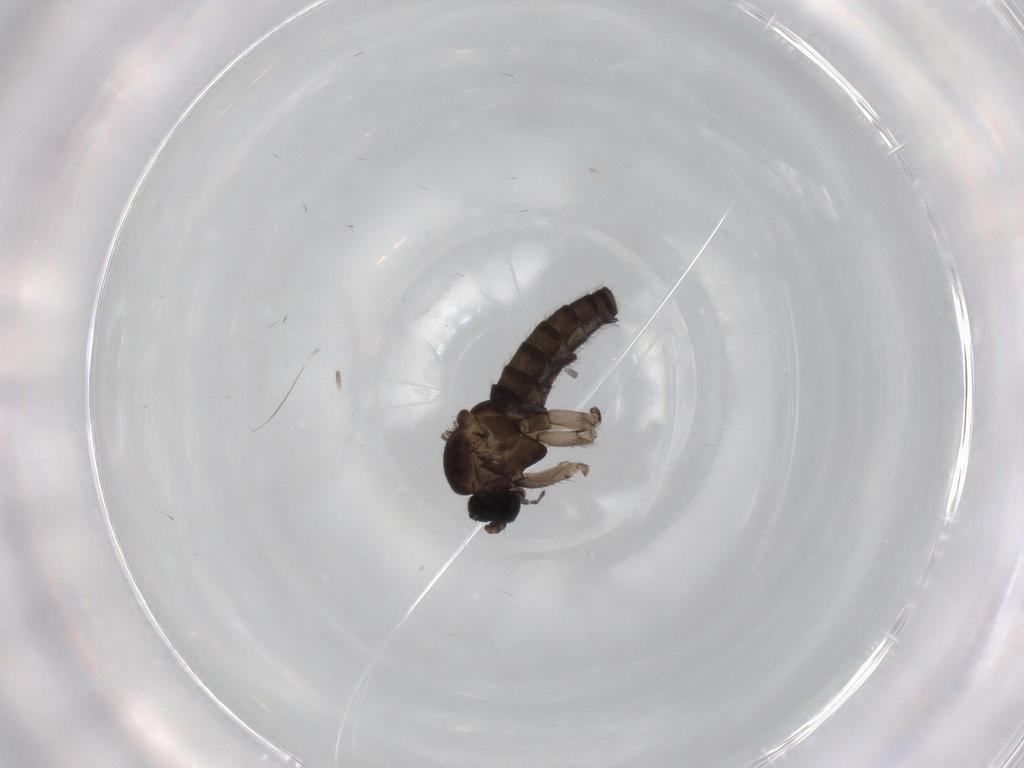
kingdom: Animalia
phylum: Arthropoda
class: Insecta
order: Diptera
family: Sciaridae
